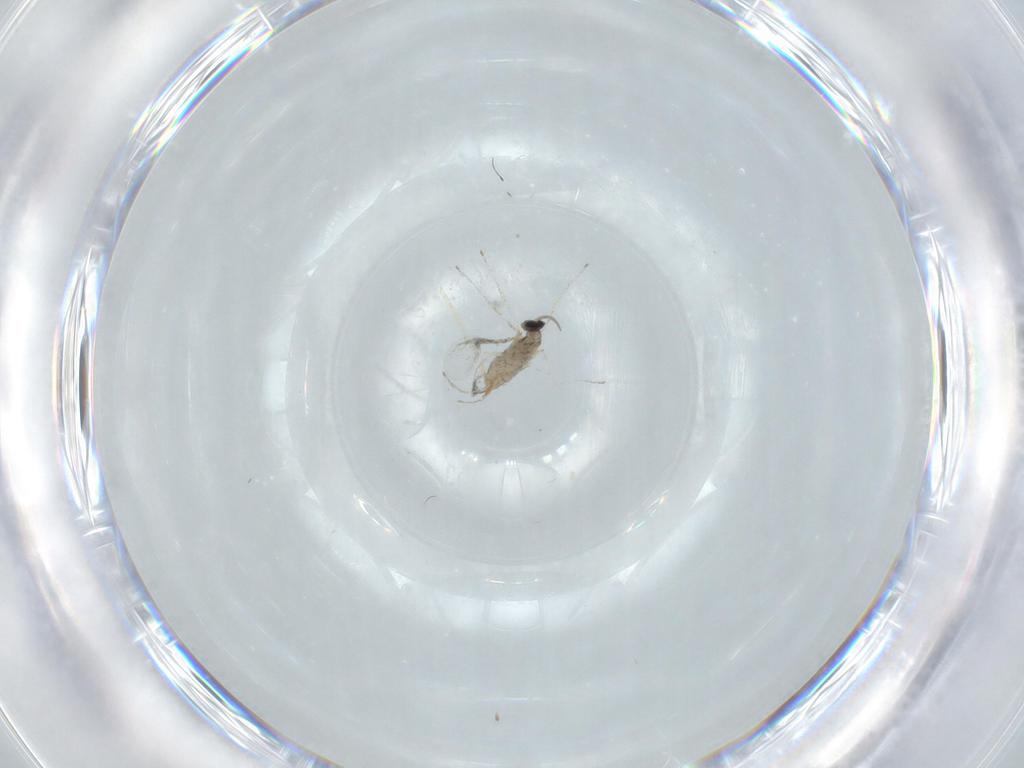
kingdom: Animalia
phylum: Arthropoda
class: Insecta
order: Diptera
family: Cecidomyiidae
